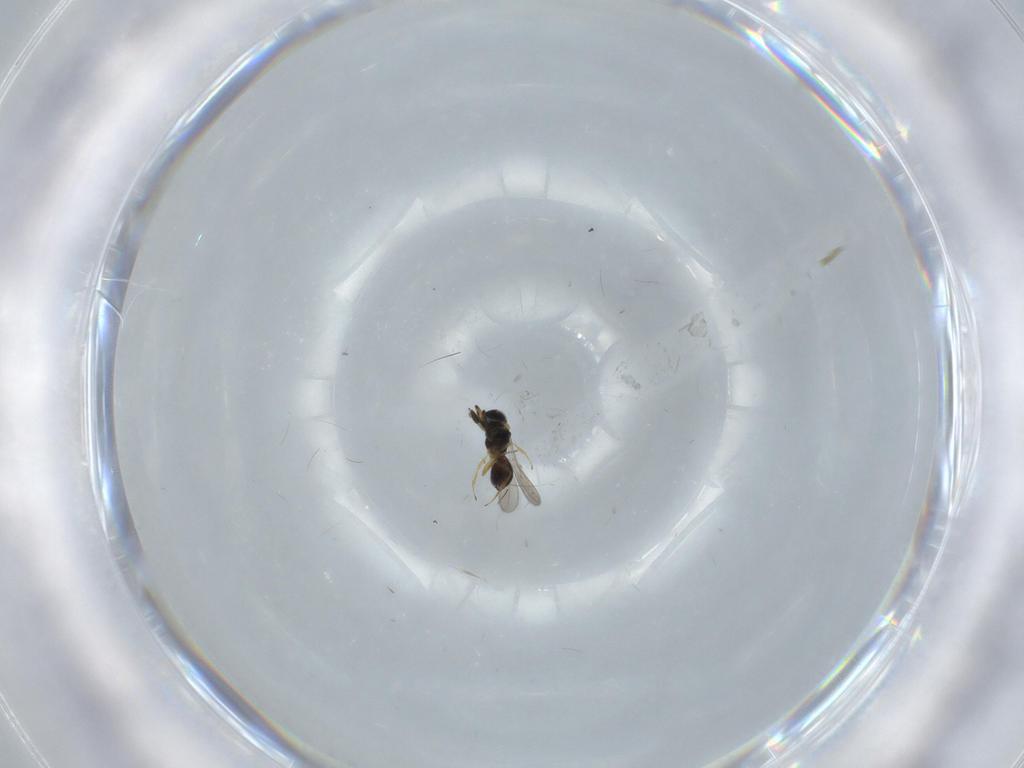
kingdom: Animalia
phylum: Arthropoda
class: Insecta
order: Hymenoptera
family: Scelionidae
